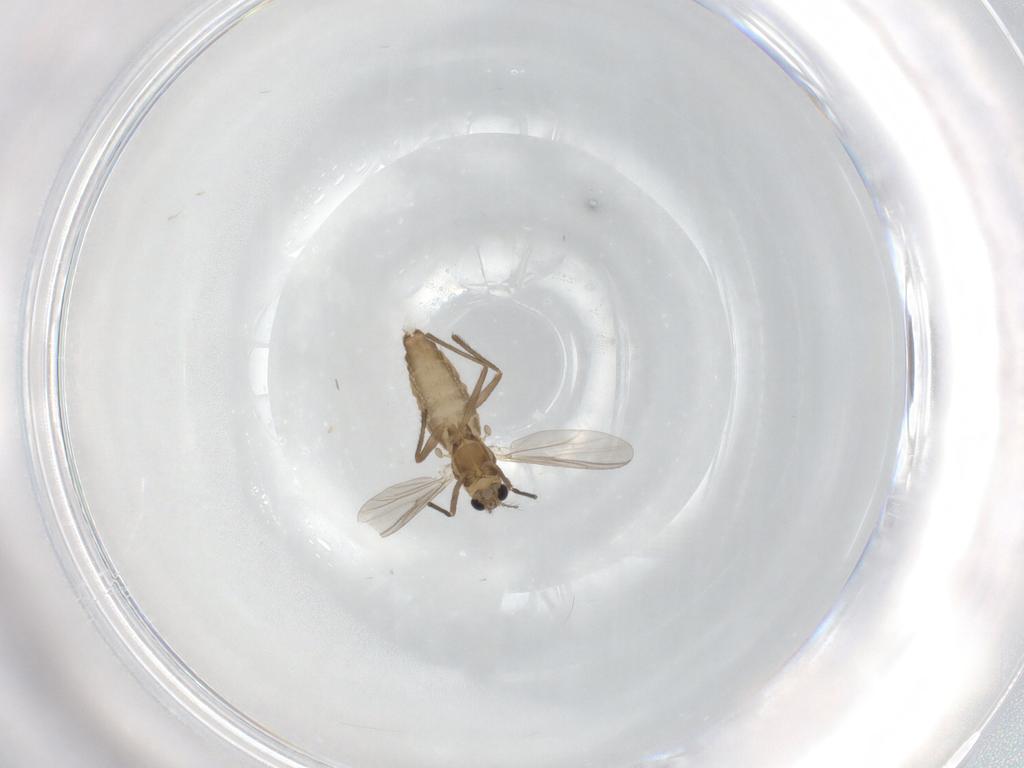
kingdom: Animalia
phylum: Arthropoda
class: Insecta
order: Diptera
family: Chironomidae
